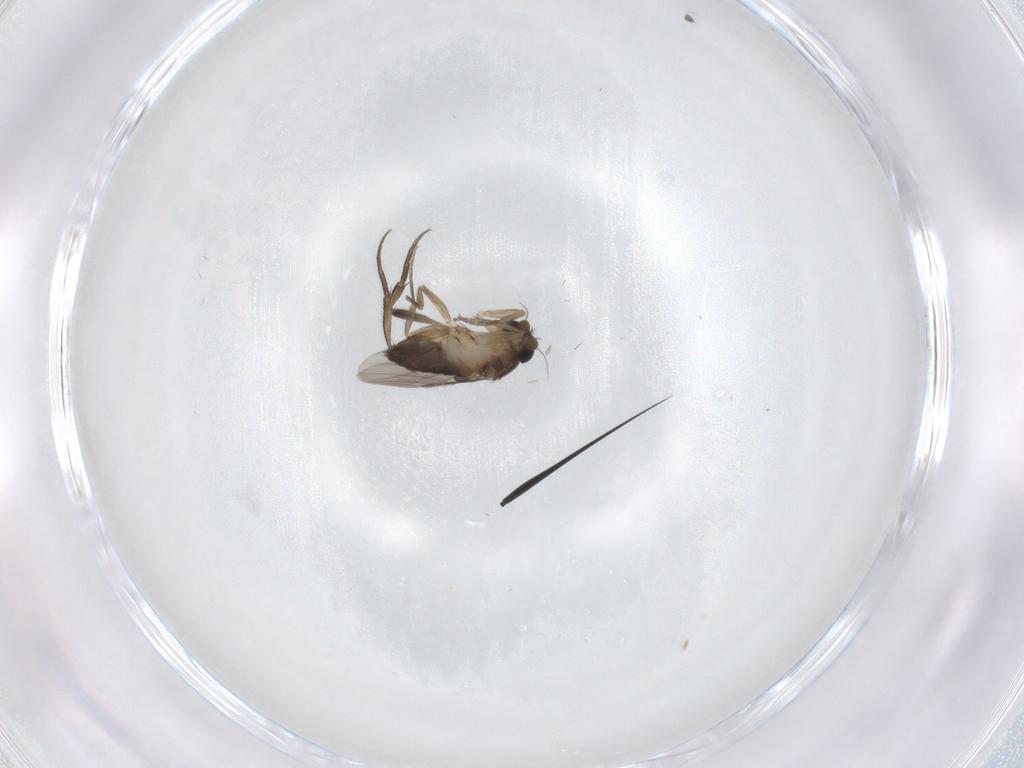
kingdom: Animalia
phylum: Arthropoda
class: Insecta
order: Diptera
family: Phoridae
